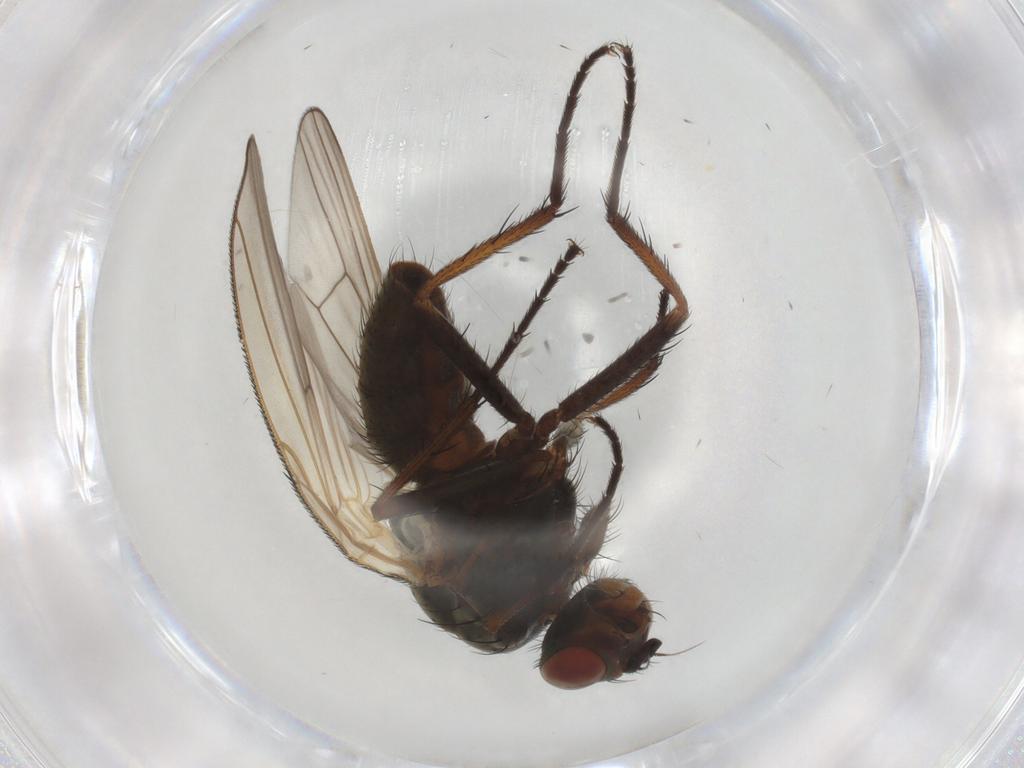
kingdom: Animalia
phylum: Arthropoda
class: Insecta
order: Diptera
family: Anthomyiidae
